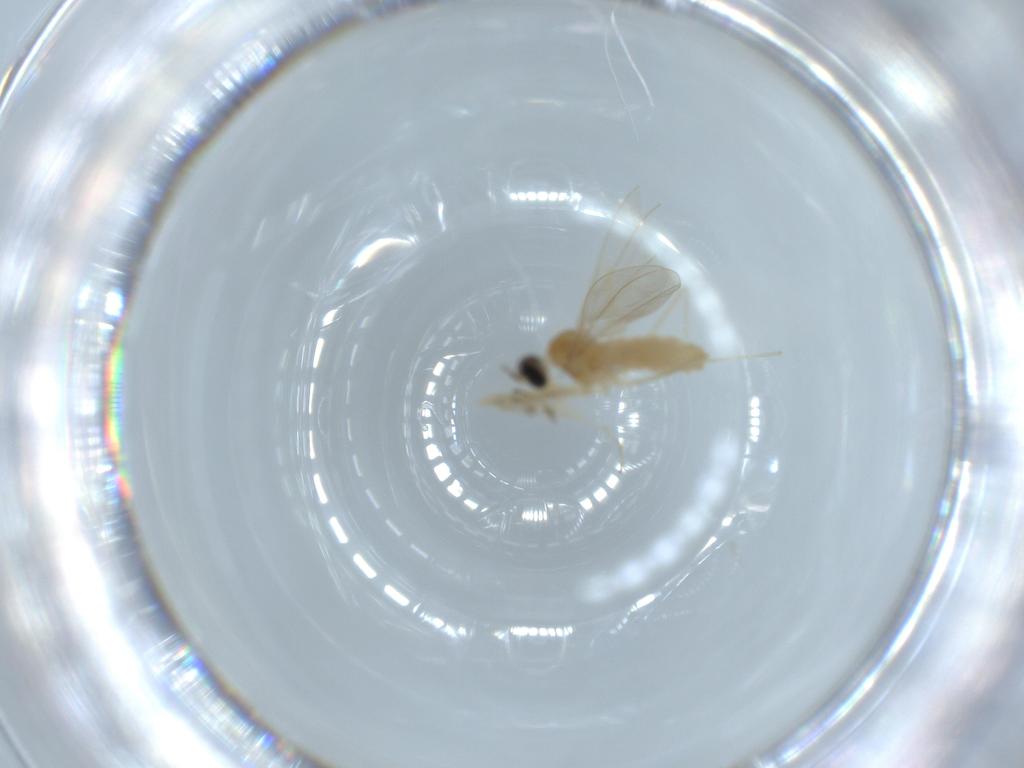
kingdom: Animalia
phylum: Arthropoda
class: Insecta
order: Diptera
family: Cecidomyiidae
